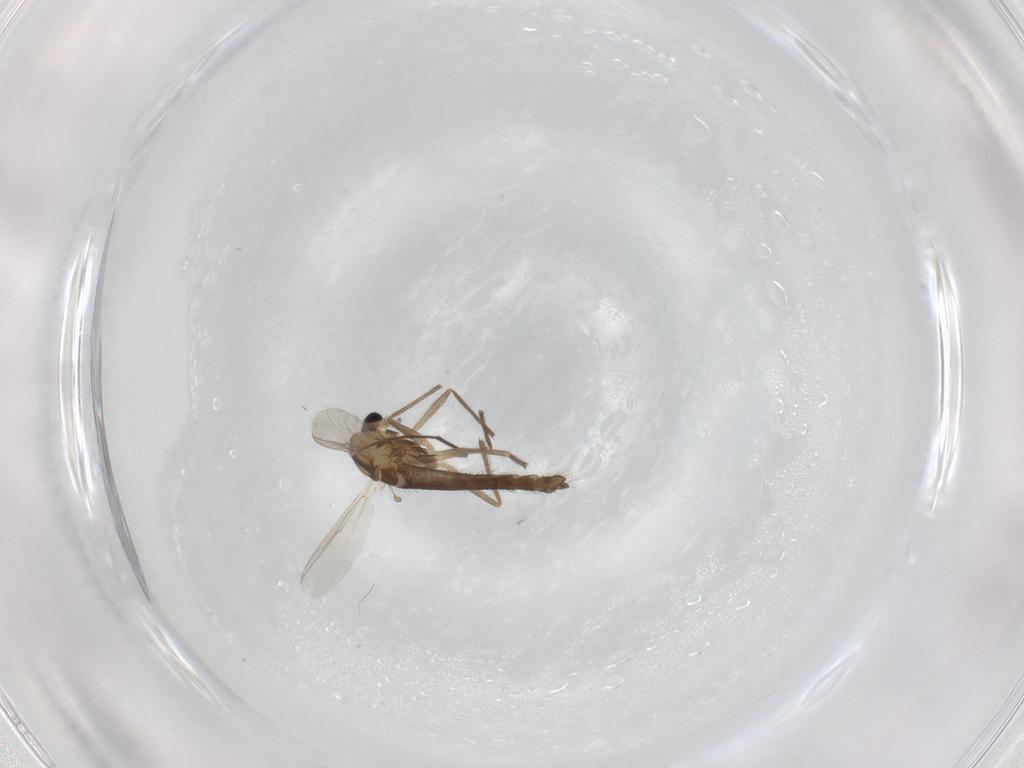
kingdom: Animalia
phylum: Arthropoda
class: Insecta
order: Diptera
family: Chironomidae
